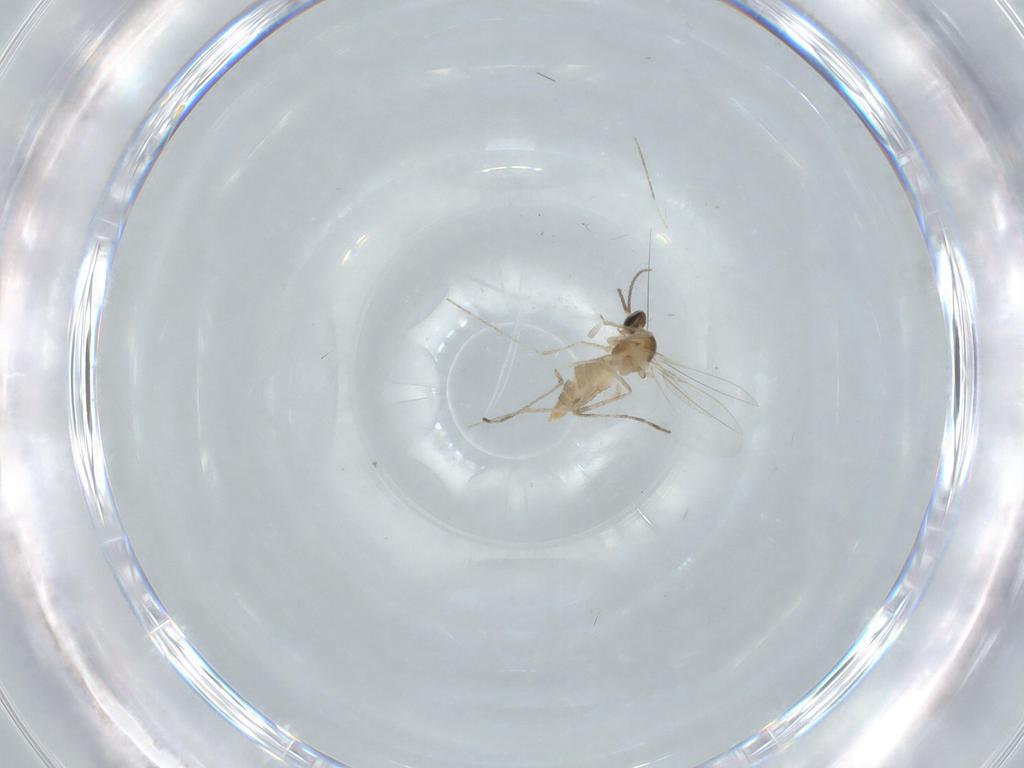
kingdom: Animalia
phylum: Arthropoda
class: Insecta
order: Diptera
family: Cecidomyiidae
